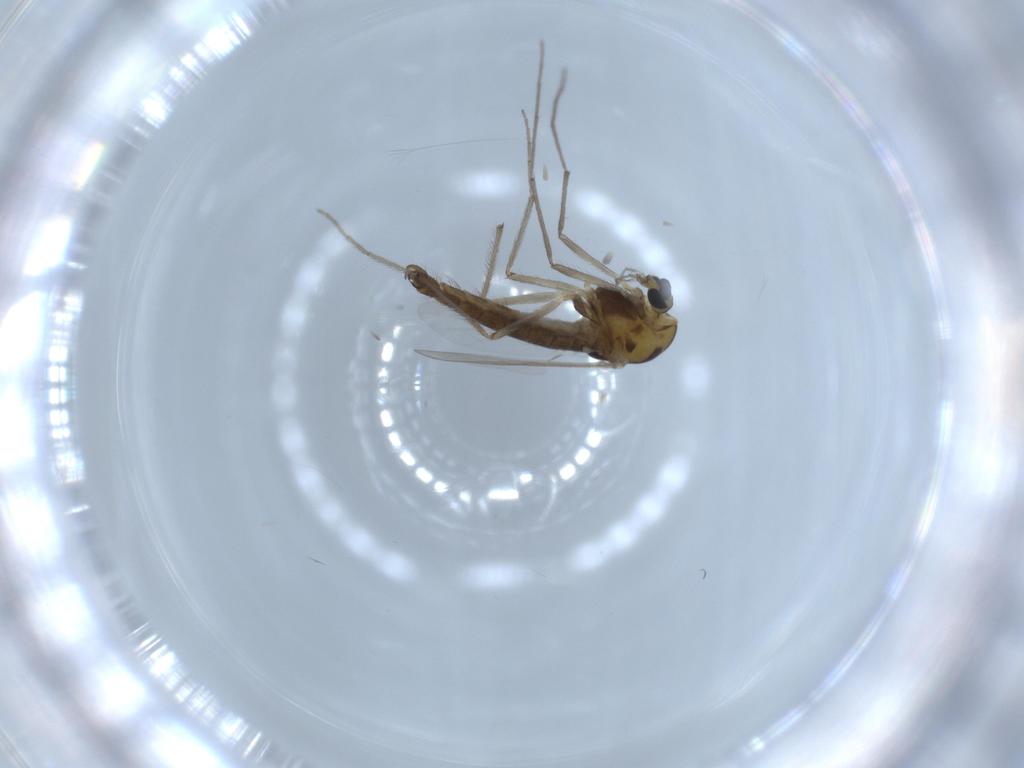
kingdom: Animalia
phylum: Arthropoda
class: Insecta
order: Diptera
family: Chironomidae
